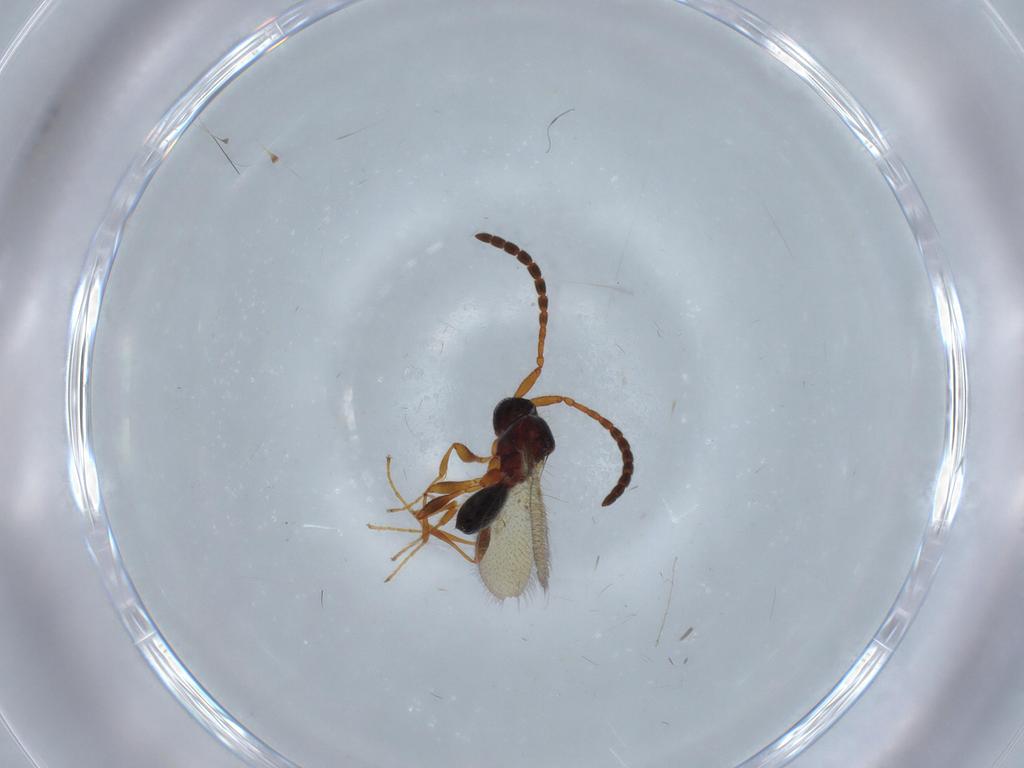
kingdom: Animalia
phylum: Arthropoda
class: Insecta
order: Hymenoptera
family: Diapriidae
